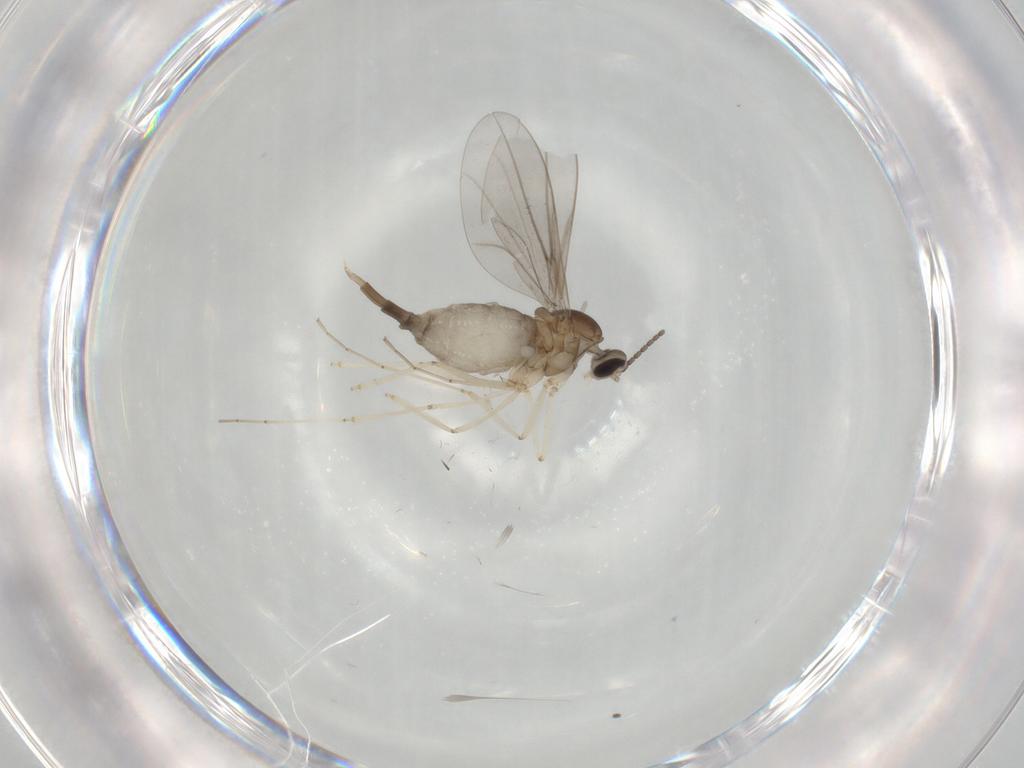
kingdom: Animalia
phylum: Arthropoda
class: Insecta
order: Diptera
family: Cecidomyiidae
